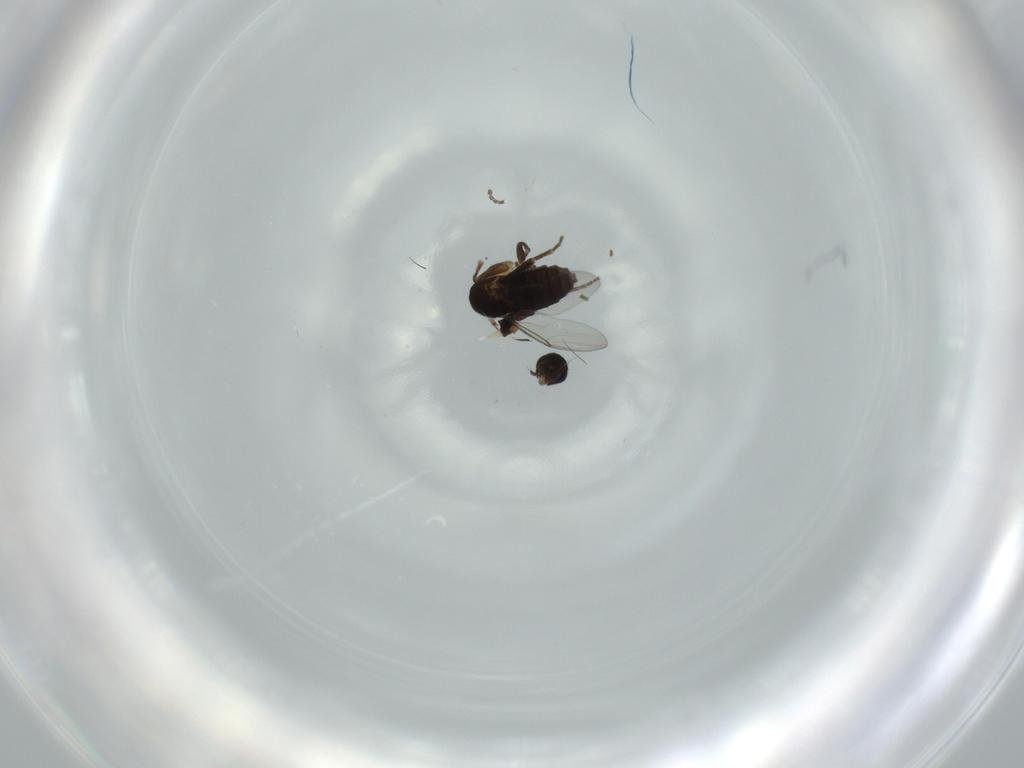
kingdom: Animalia
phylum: Arthropoda
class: Insecta
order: Diptera
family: Phoridae
